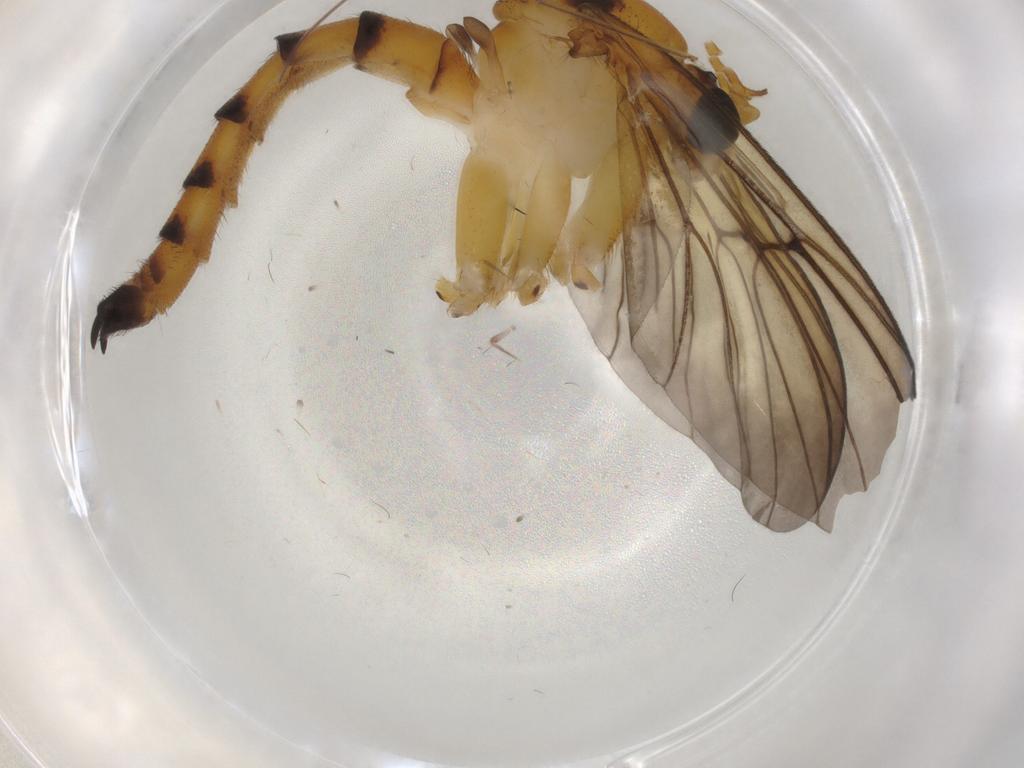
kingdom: Animalia
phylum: Arthropoda
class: Insecta
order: Diptera
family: Sciaridae
